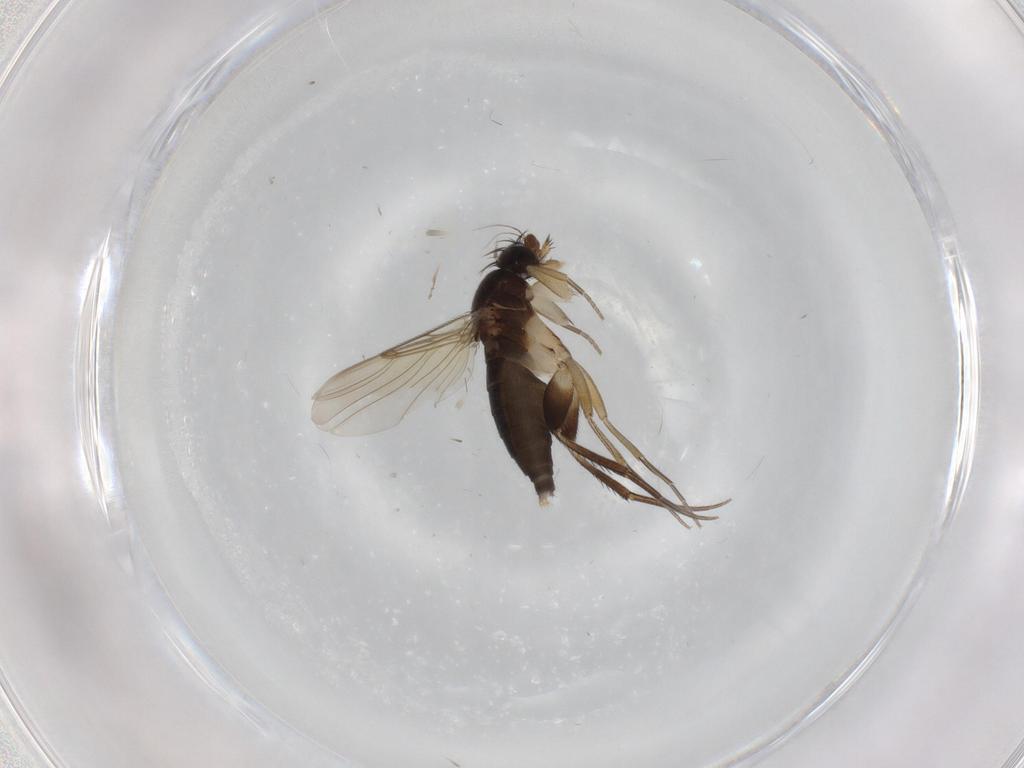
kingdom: Animalia
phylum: Arthropoda
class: Insecta
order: Diptera
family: Phoridae
